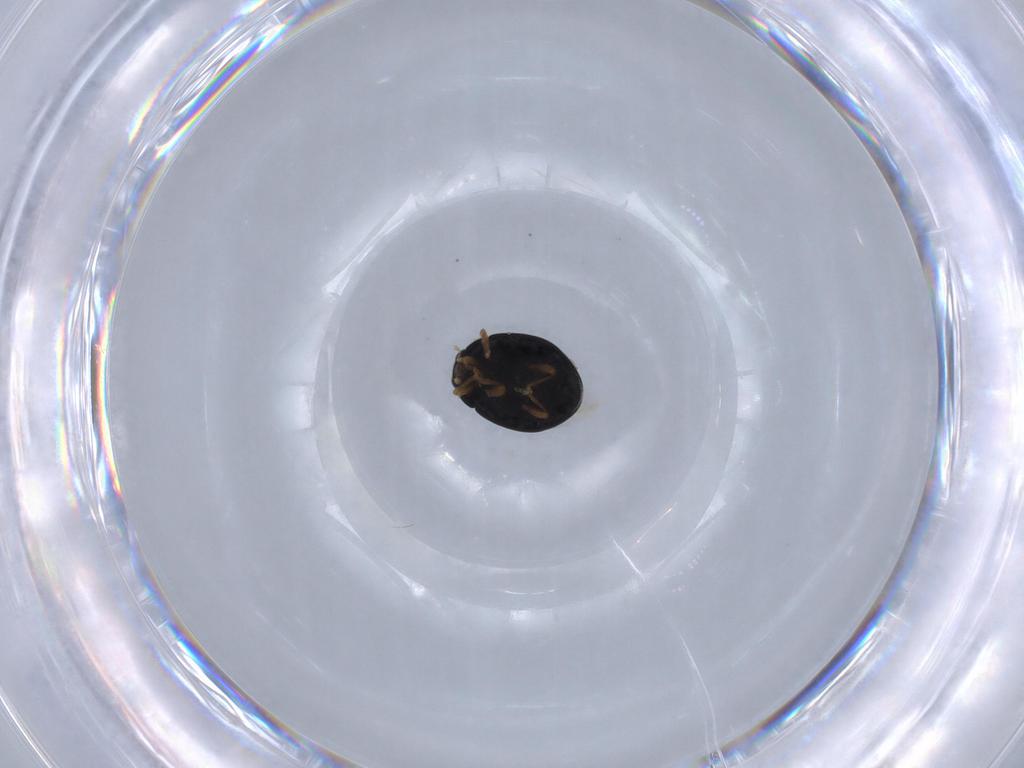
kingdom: Animalia
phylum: Arthropoda
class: Insecta
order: Coleoptera
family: Coccinellidae
